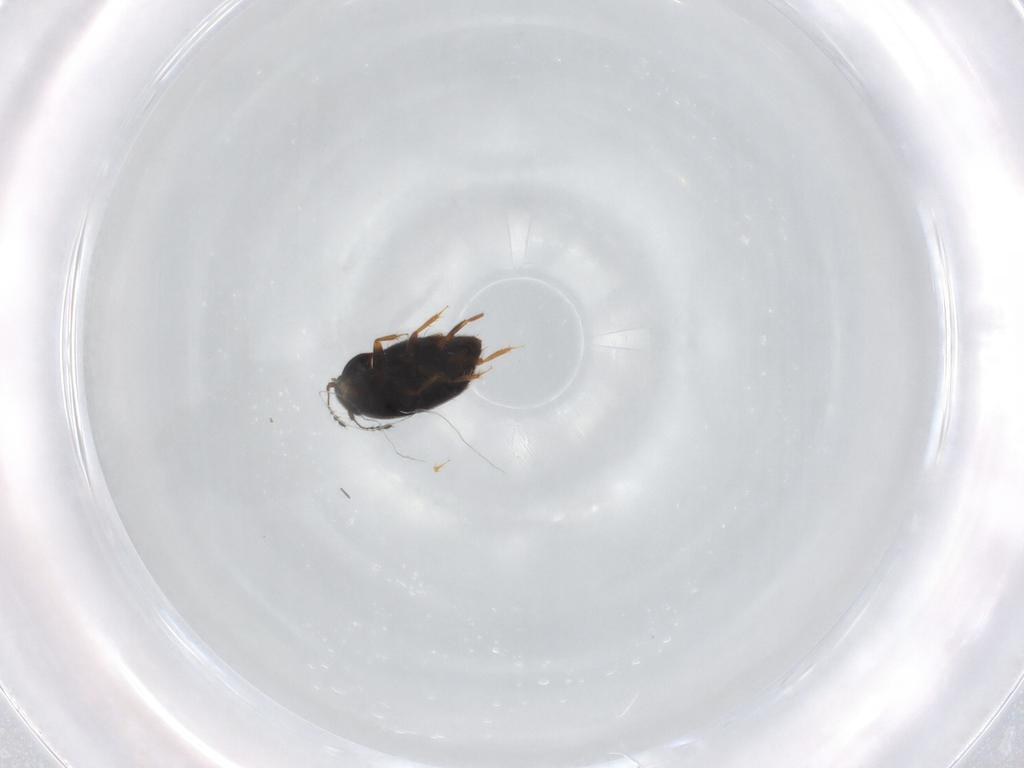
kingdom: Animalia
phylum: Arthropoda
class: Insecta
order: Coleoptera
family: Ptiliidae
